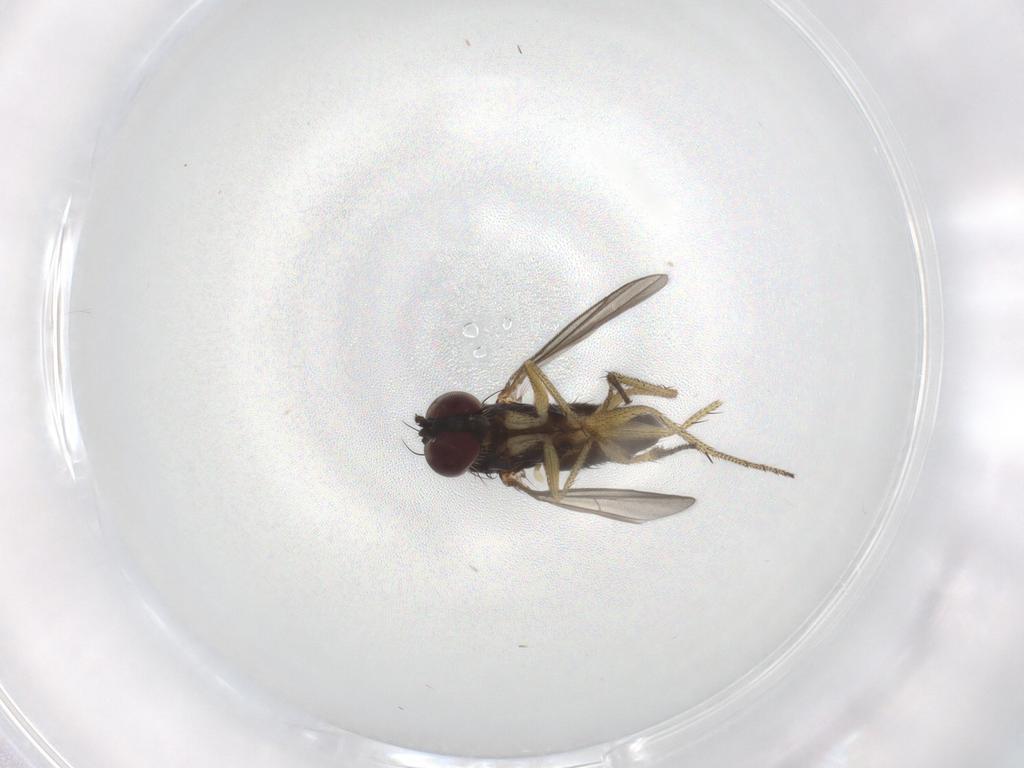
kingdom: Animalia
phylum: Arthropoda
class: Insecta
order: Diptera
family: Dolichopodidae
